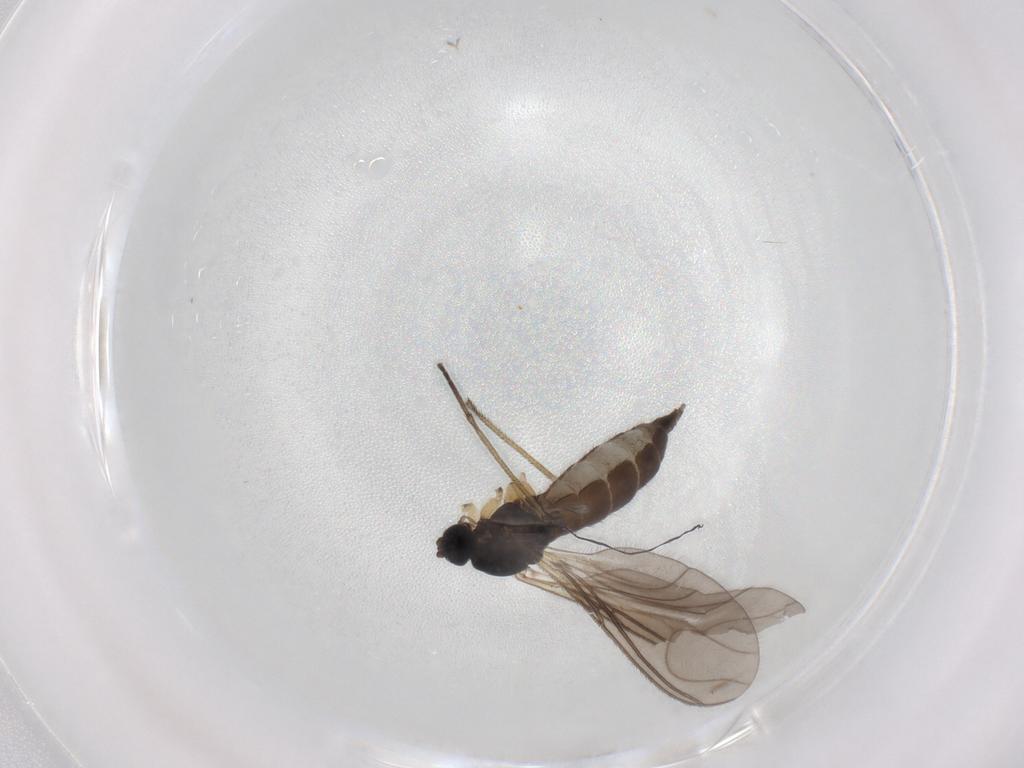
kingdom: Animalia
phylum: Arthropoda
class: Insecta
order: Diptera
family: Sciaridae
